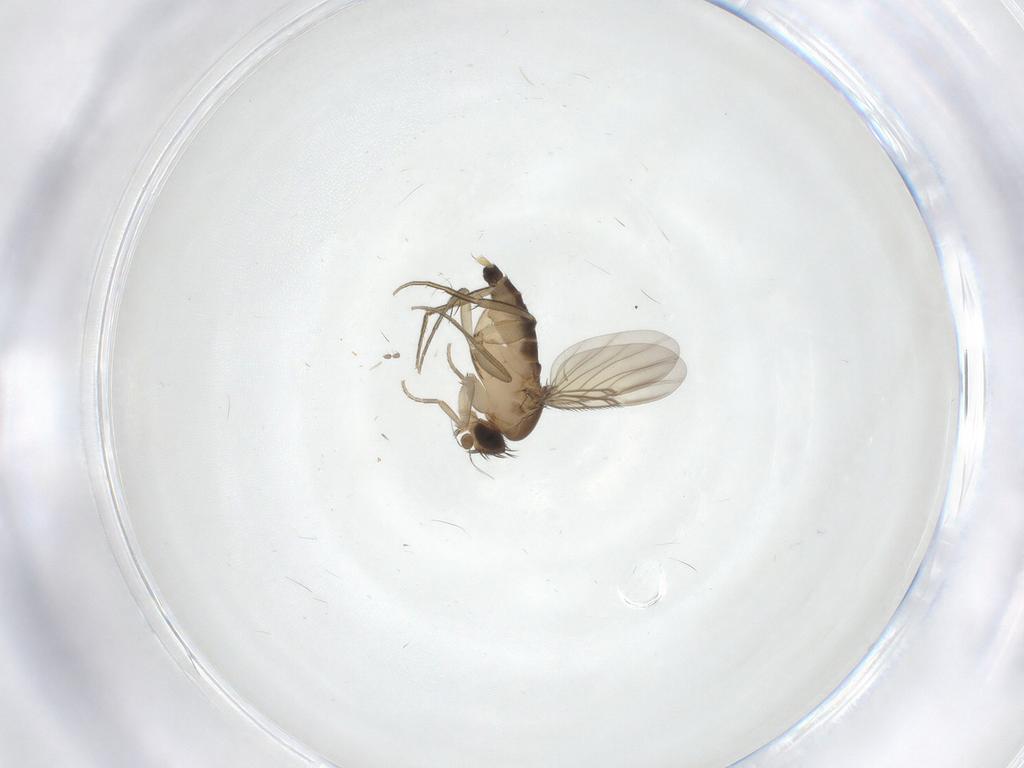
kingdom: Animalia
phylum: Arthropoda
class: Insecta
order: Diptera
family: Cecidomyiidae
